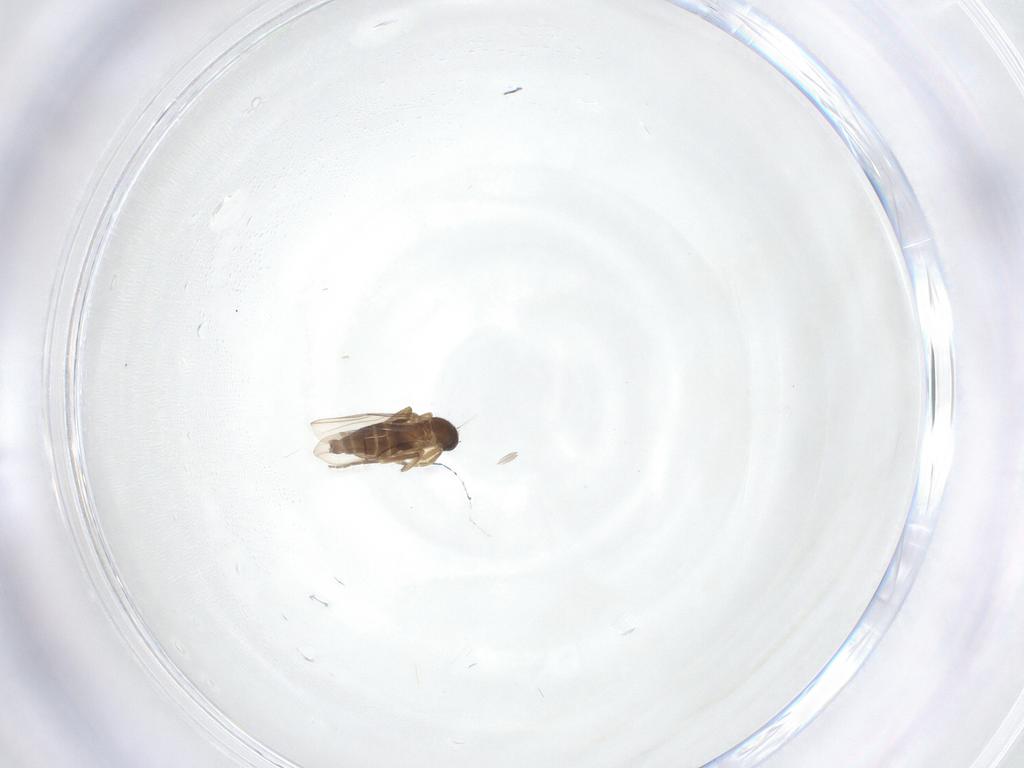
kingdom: Animalia
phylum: Arthropoda
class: Insecta
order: Diptera
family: Phoridae
